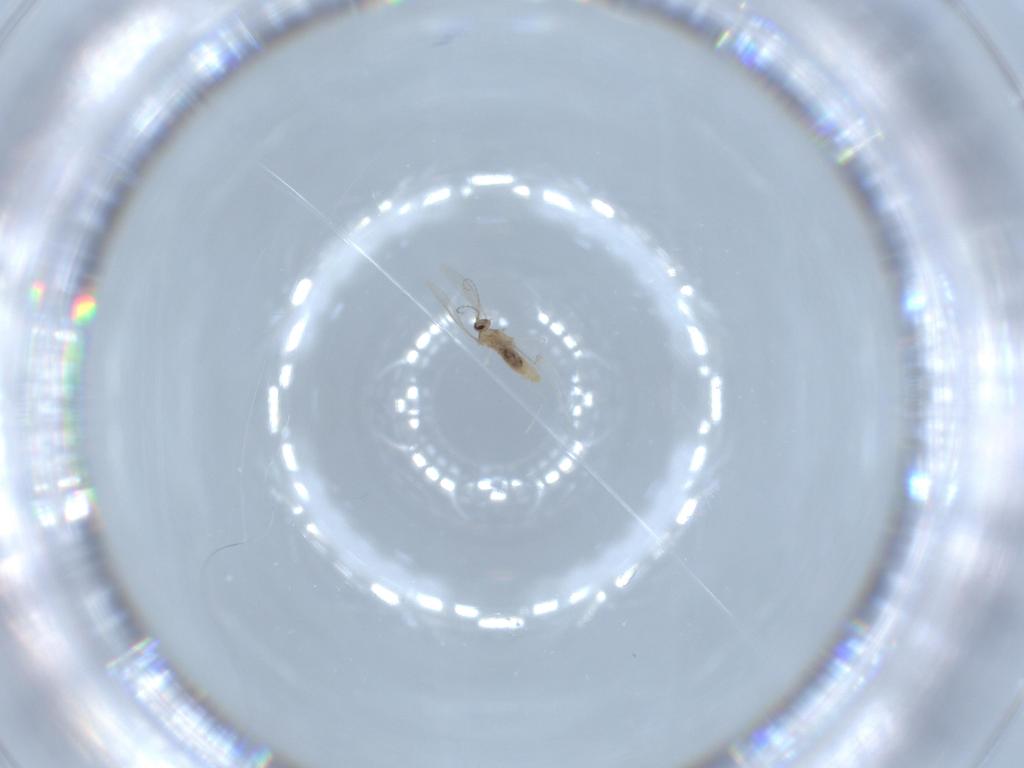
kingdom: Animalia
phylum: Arthropoda
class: Insecta
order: Diptera
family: Cecidomyiidae
